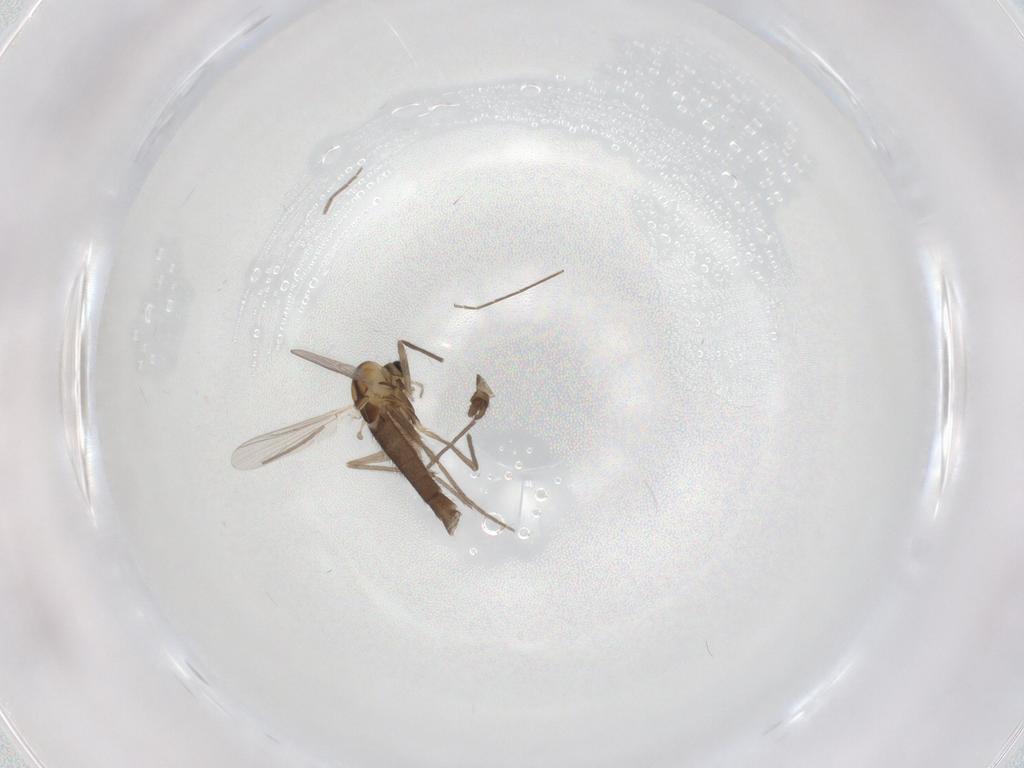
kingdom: Animalia
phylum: Arthropoda
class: Insecta
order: Diptera
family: Chironomidae
